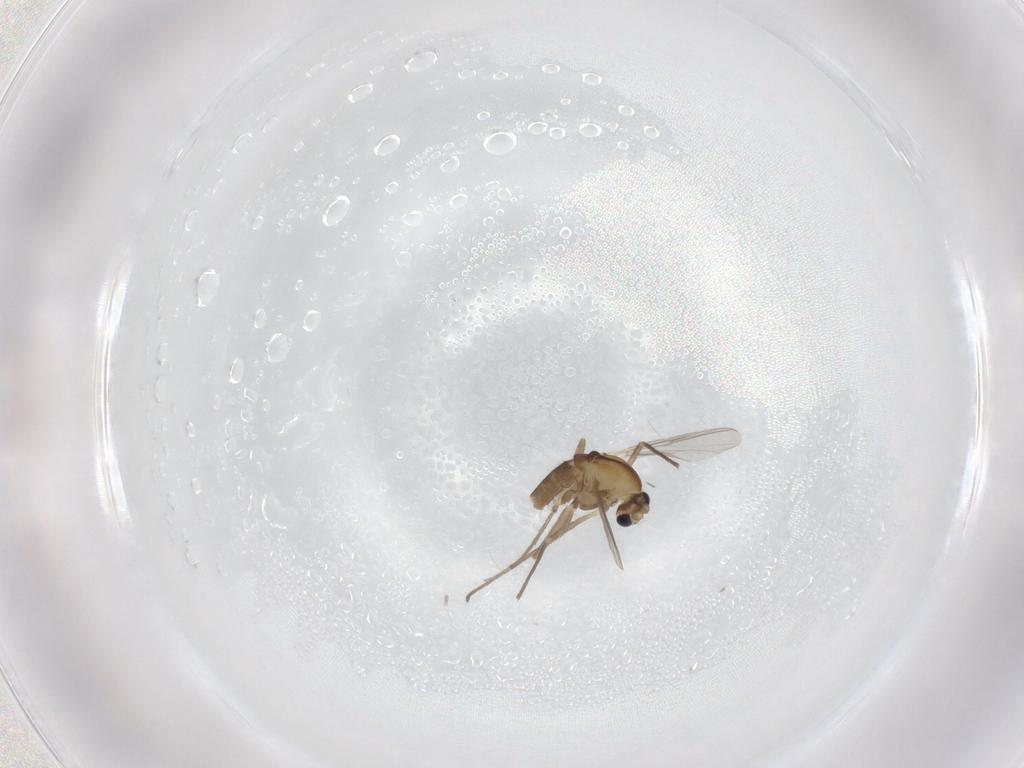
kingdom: Animalia
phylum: Arthropoda
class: Insecta
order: Diptera
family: Chironomidae
